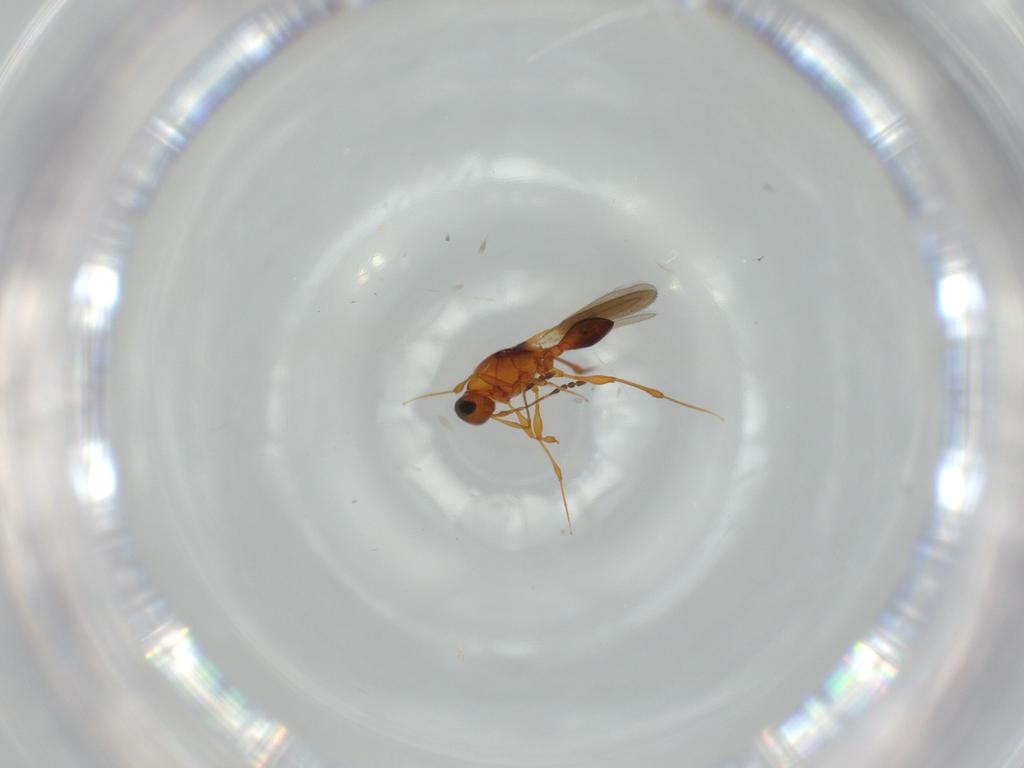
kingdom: Animalia
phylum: Arthropoda
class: Insecta
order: Hymenoptera
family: Platygastridae
